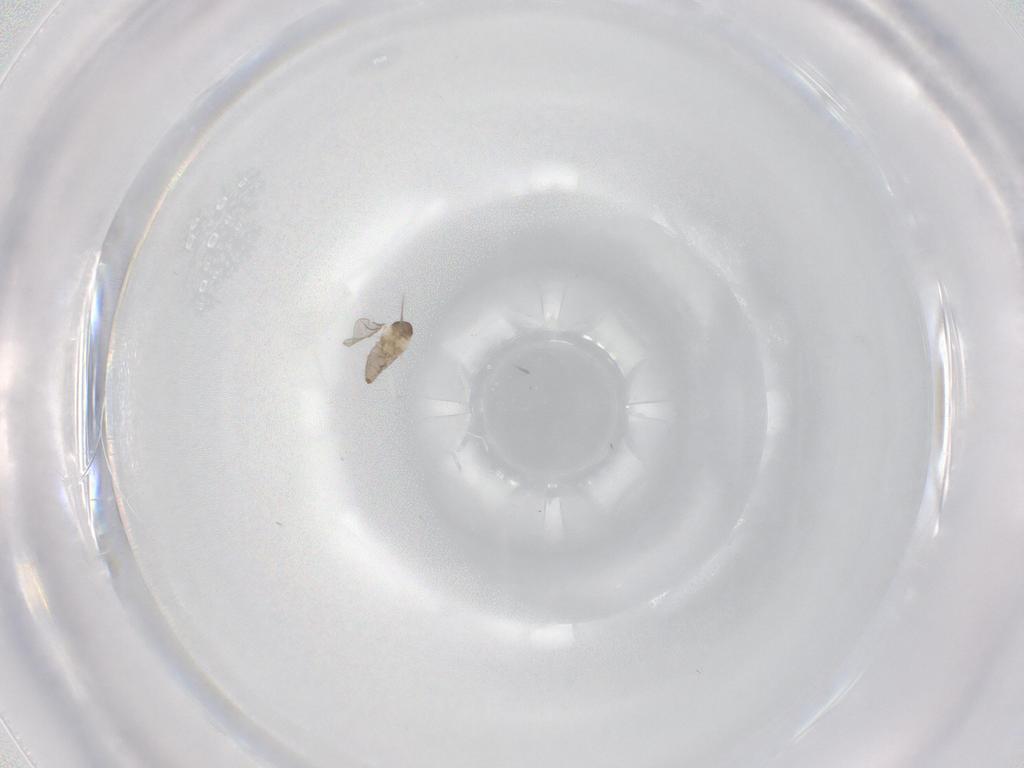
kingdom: Animalia
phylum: Arthropoda
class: Insecta
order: Diptera
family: Cecidomyiidae
